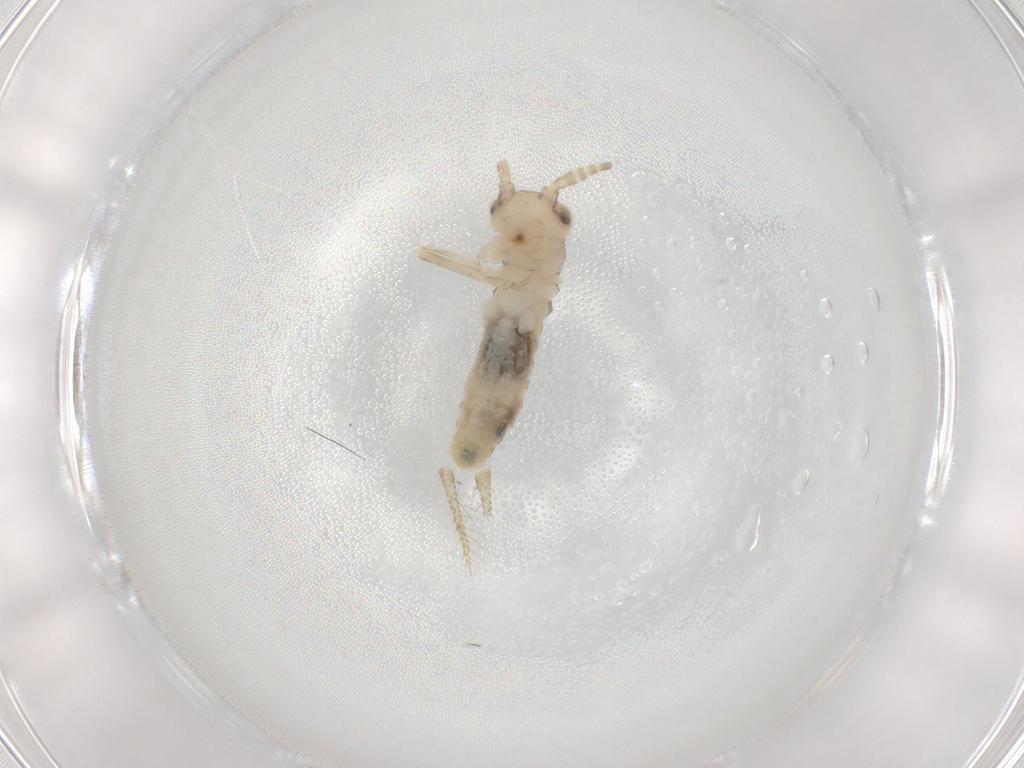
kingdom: Animalia
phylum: Arthropoda
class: Insecta
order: Orthoptera
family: Gryllidae
